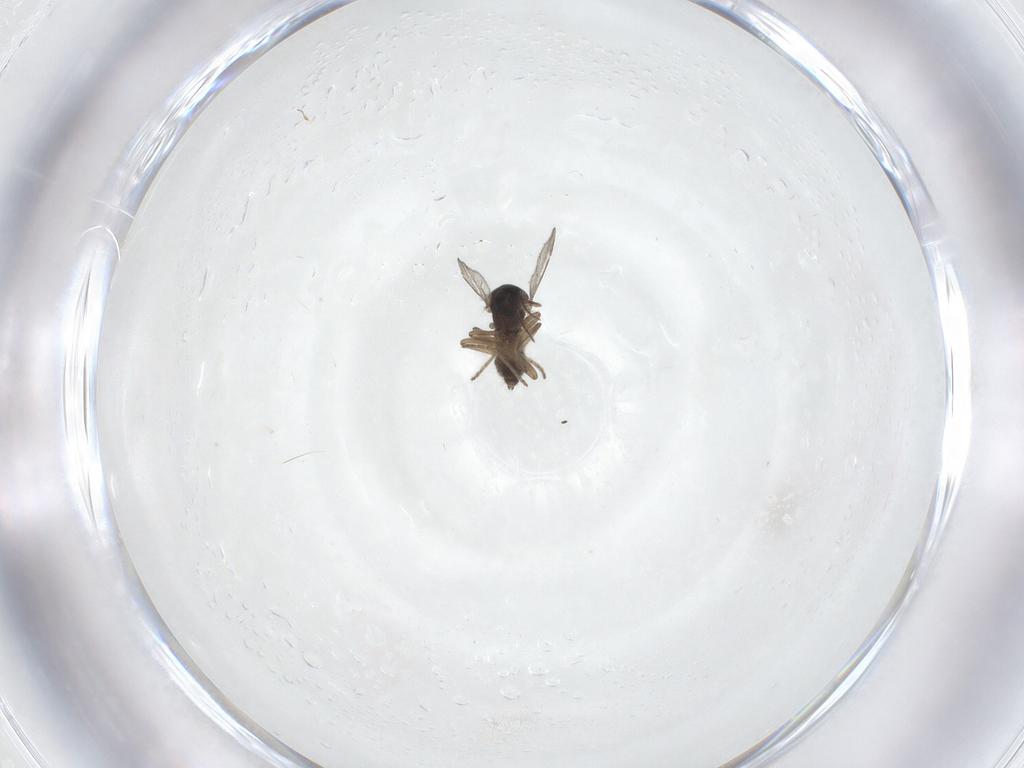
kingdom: Animalia
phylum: Arthropoda
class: Insecta
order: Diptera
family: Ceratopogonidae
